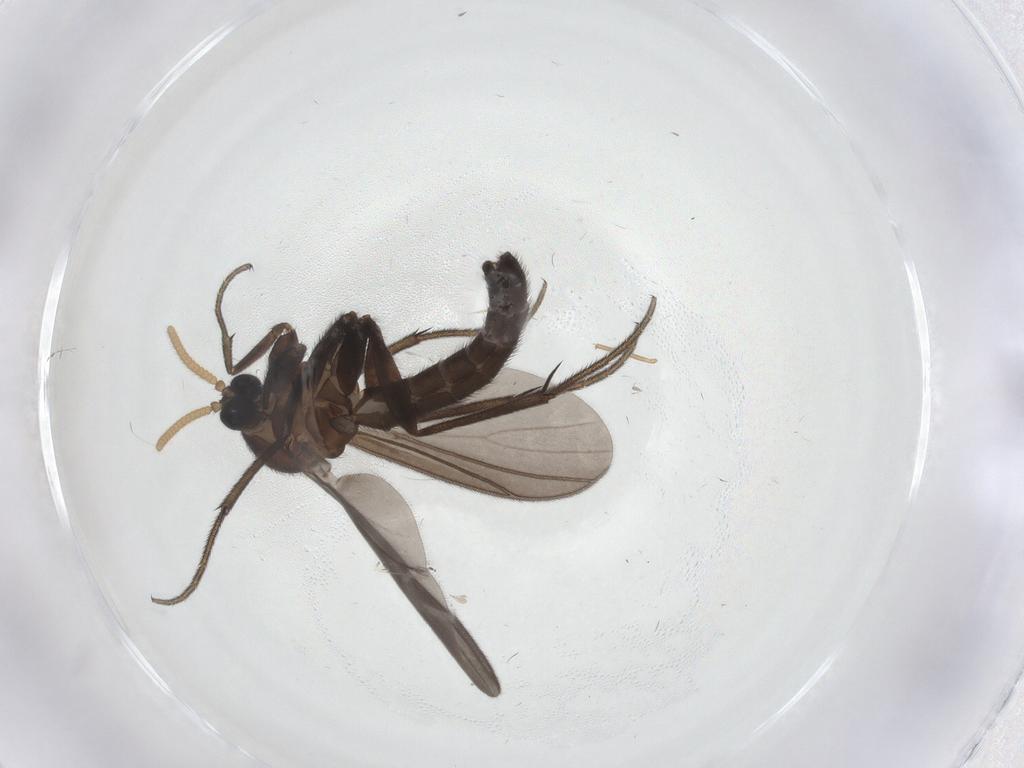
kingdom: Animalia
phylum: Arthropoda
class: Insecta
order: Diptera
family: Mycetophilidae
